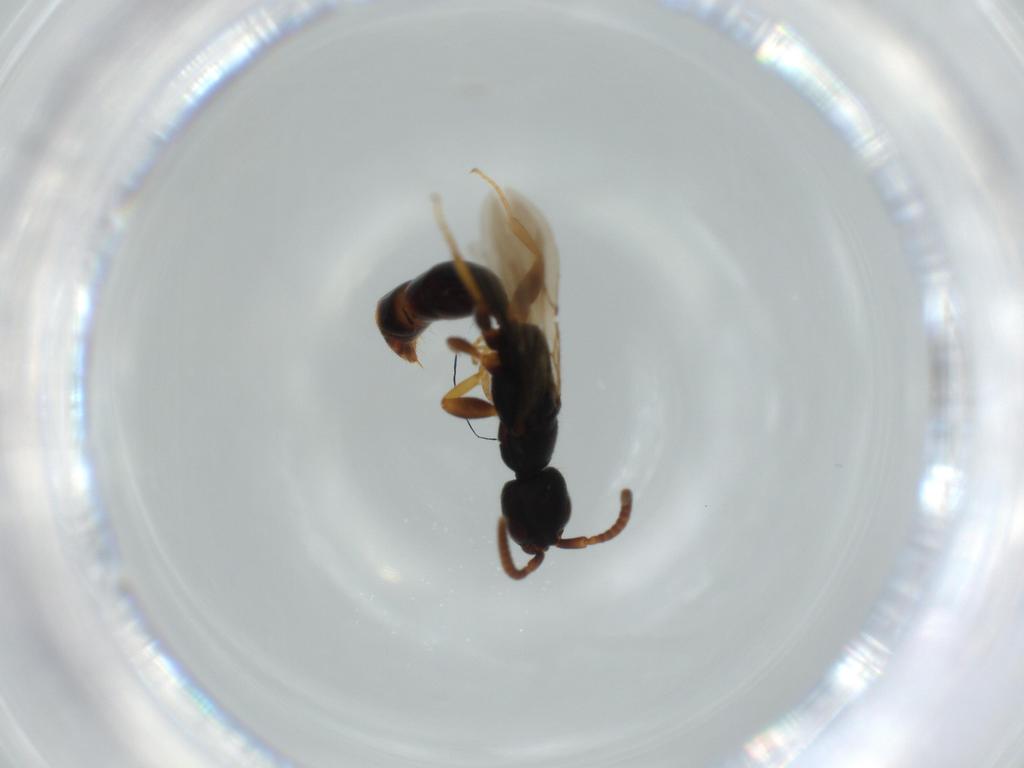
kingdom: Animalia
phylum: Arthropoda
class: Insecta
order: Hymenoptera
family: Bethylidae
